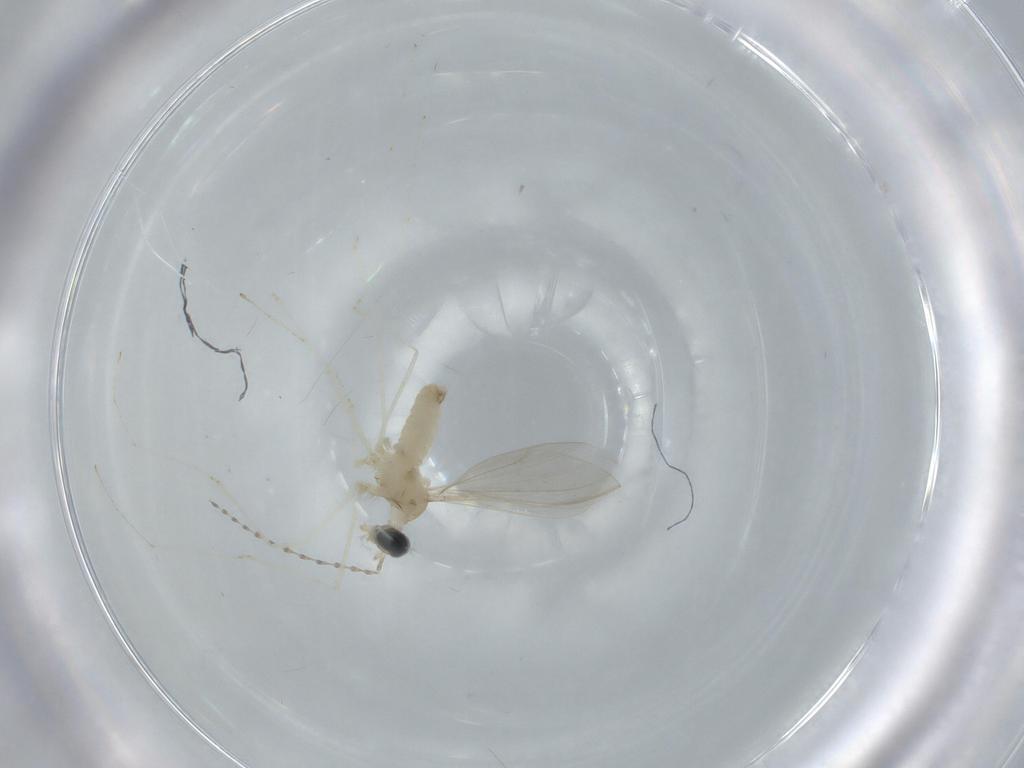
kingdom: Animalia
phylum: Arthropoda
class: Insecta
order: Diptera
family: Cecidomyiidae
